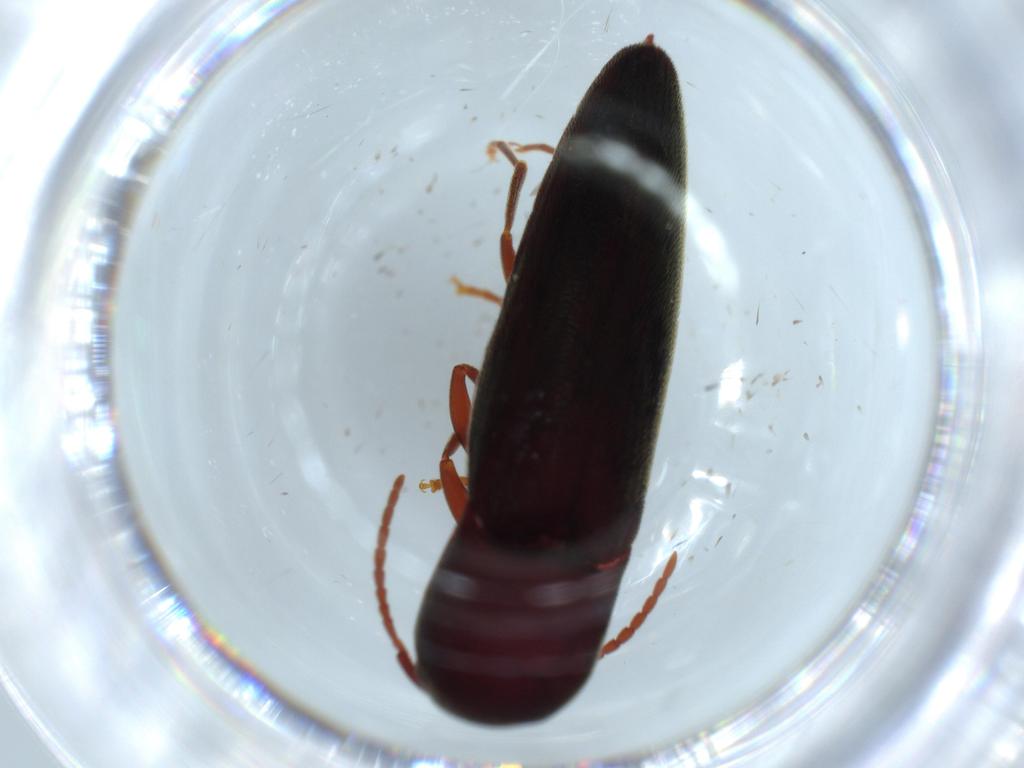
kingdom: Animalia
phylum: Arthropoda
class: Insecta
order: Coleoptera
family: Eucnemidae
